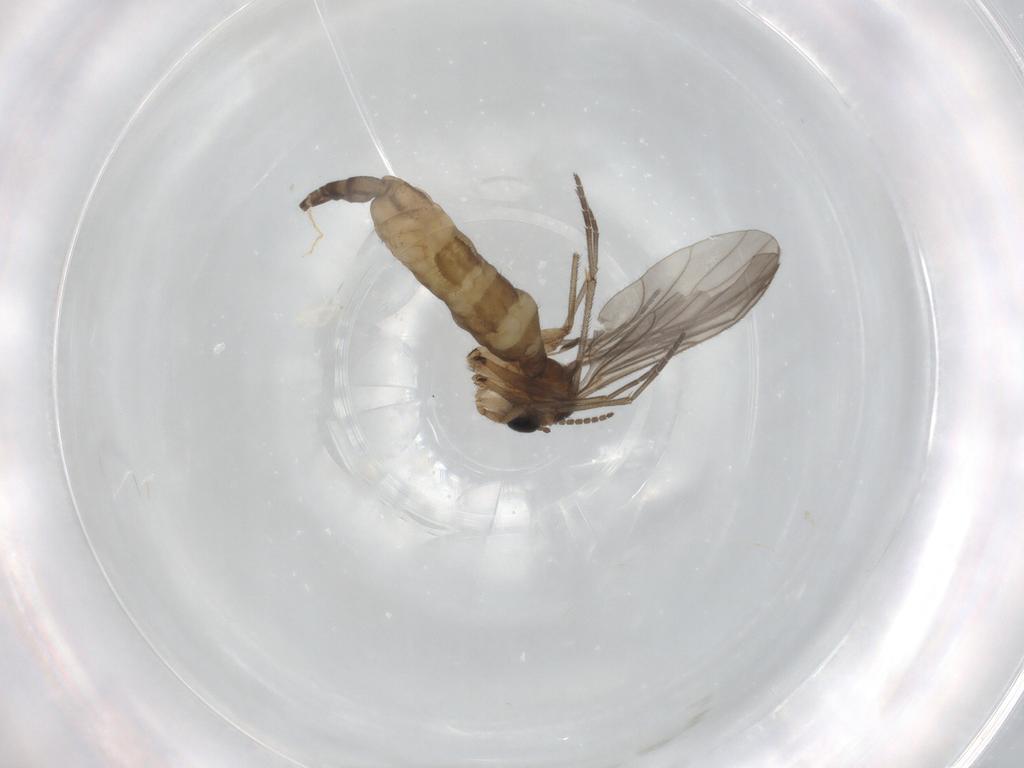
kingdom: Animalia
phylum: Arthropoda
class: Insecta
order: Diptera
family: Sciaridae
